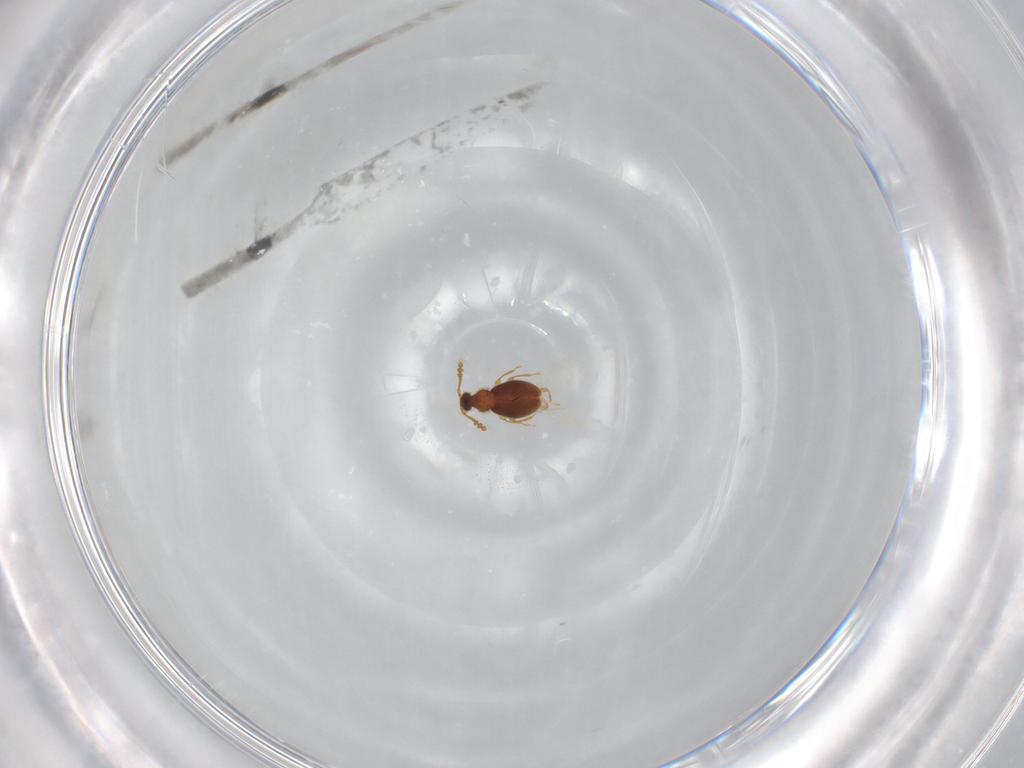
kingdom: Animalia
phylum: Arthropoda
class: Insecta
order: Coleoptera
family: Staphylinidae
